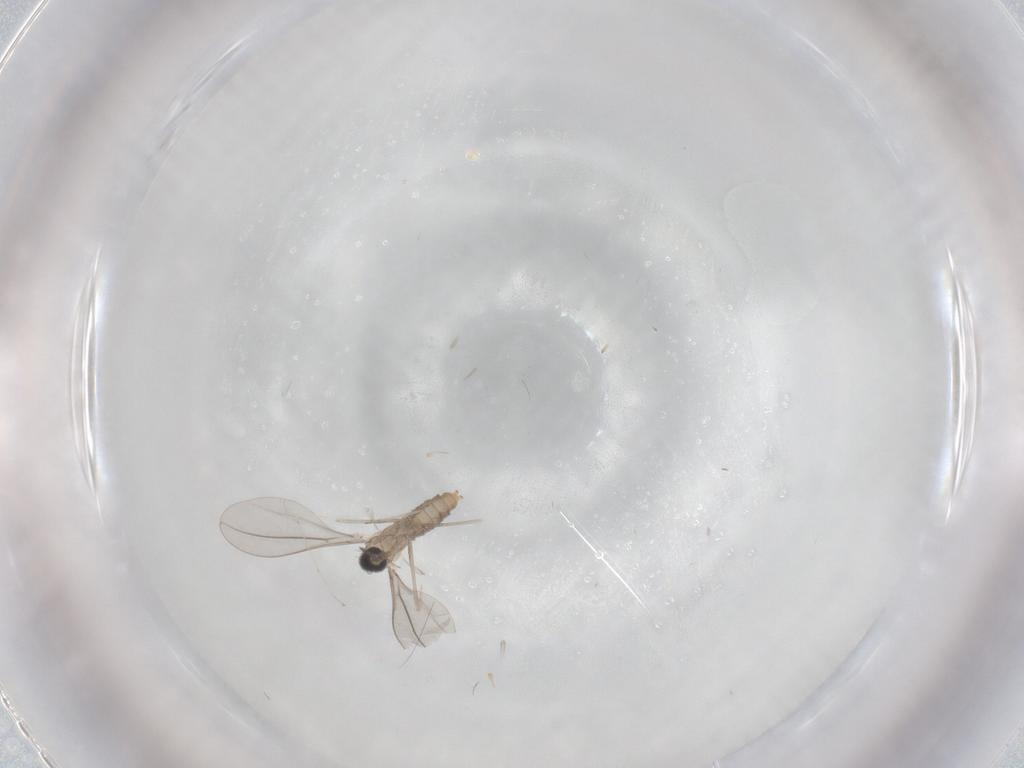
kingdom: Animalia
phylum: Arthropoda
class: Insecta
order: Diptera
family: Cecidomyiidae
